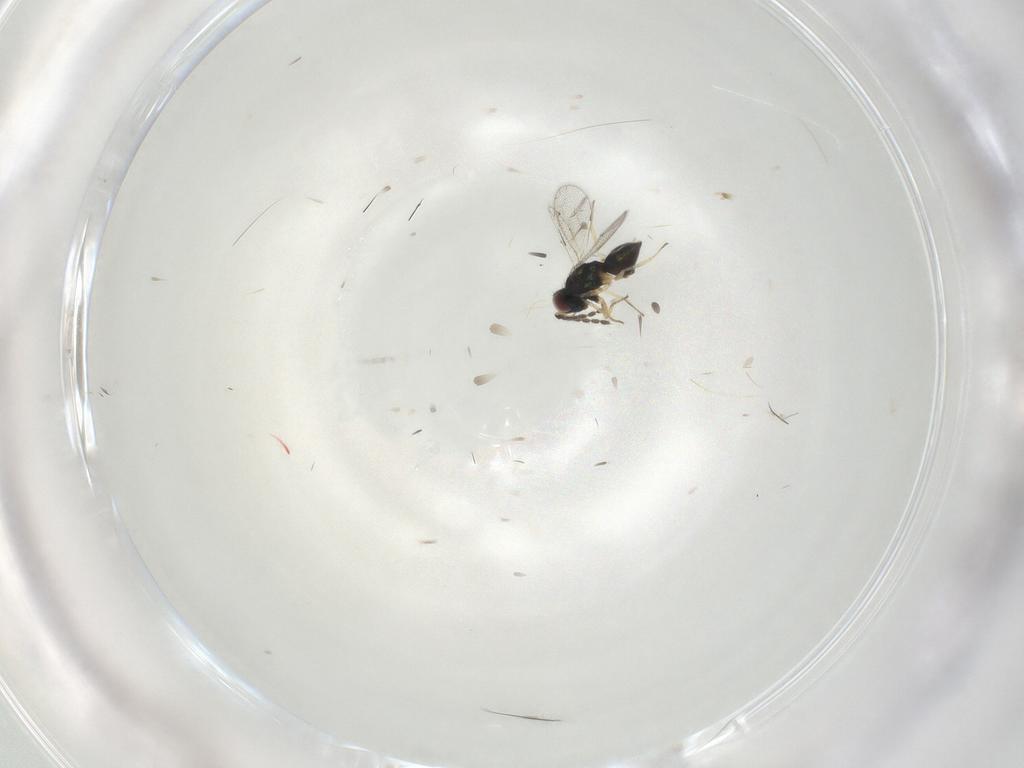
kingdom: Animalia
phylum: Arthropoda
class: Insecta
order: Hymenoptera
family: Eulophidae
